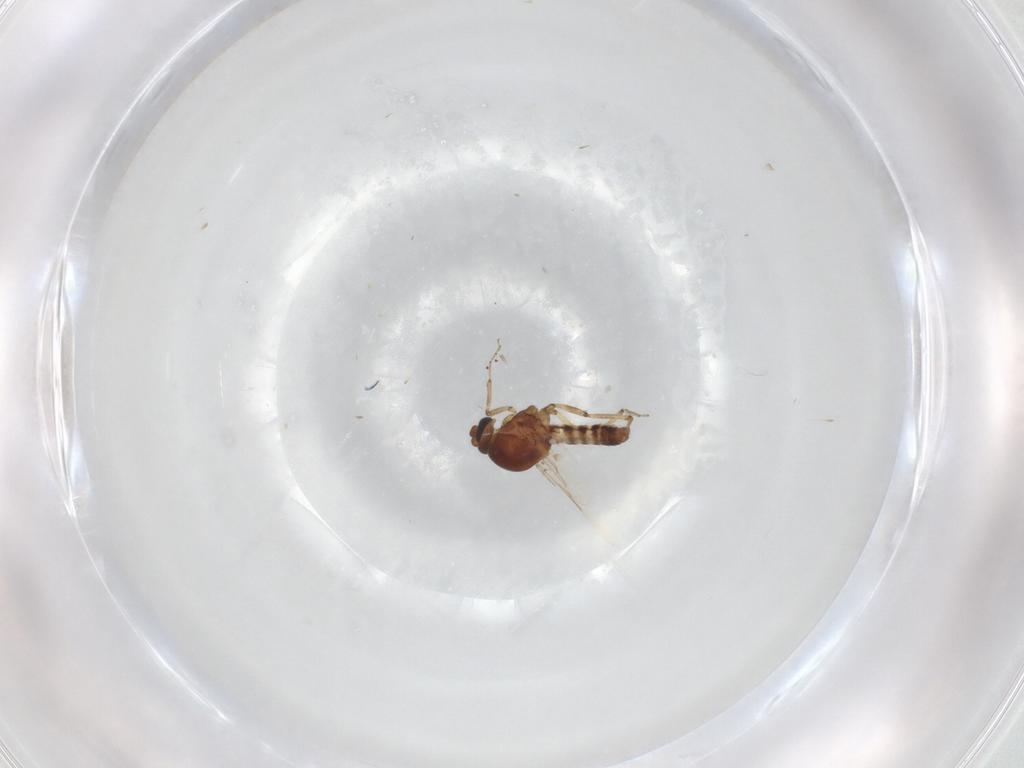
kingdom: Animalia
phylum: Arthropoda
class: Insecta
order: Diptera
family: Ceratopogonidae
